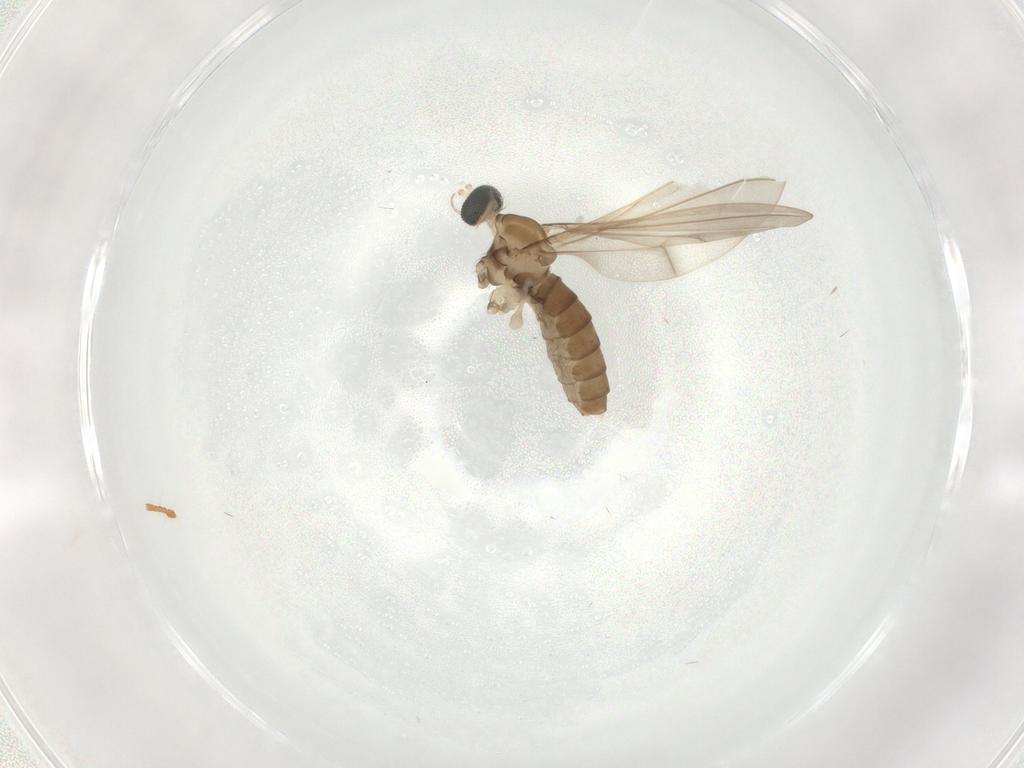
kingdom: Animalia
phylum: Arthropoda
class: Insecta
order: Diptera
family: Cecidomyiidae
